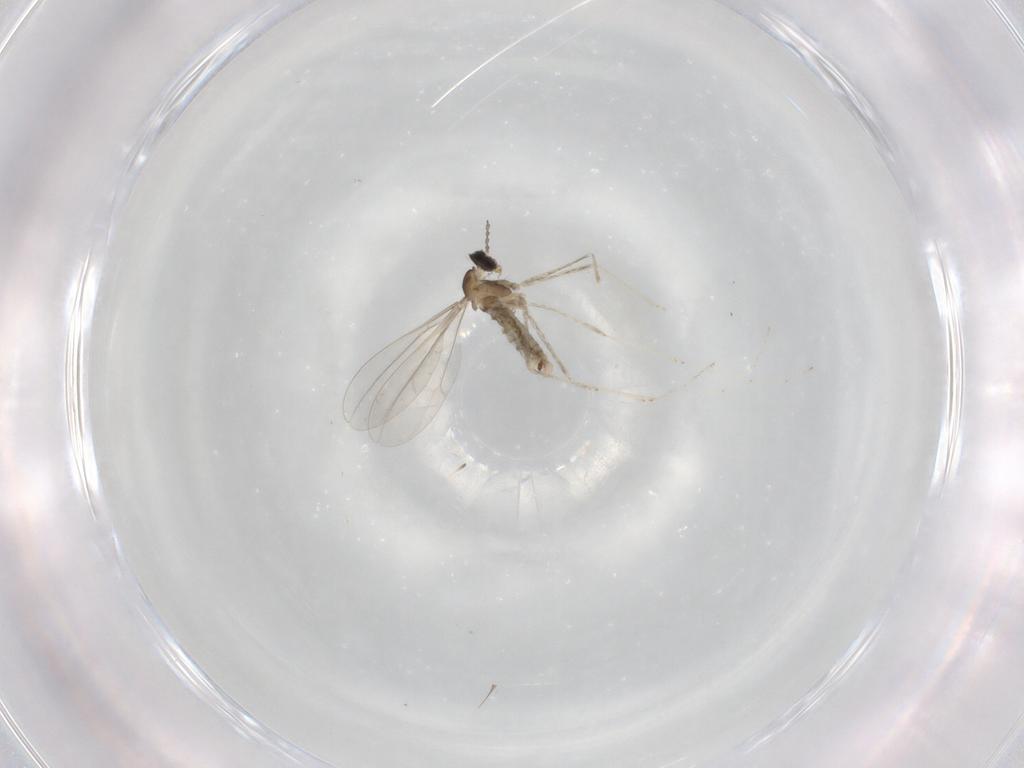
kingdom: Animalia
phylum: Arthropoda
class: Insecta
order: Diptera
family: Cecidomyiidae
